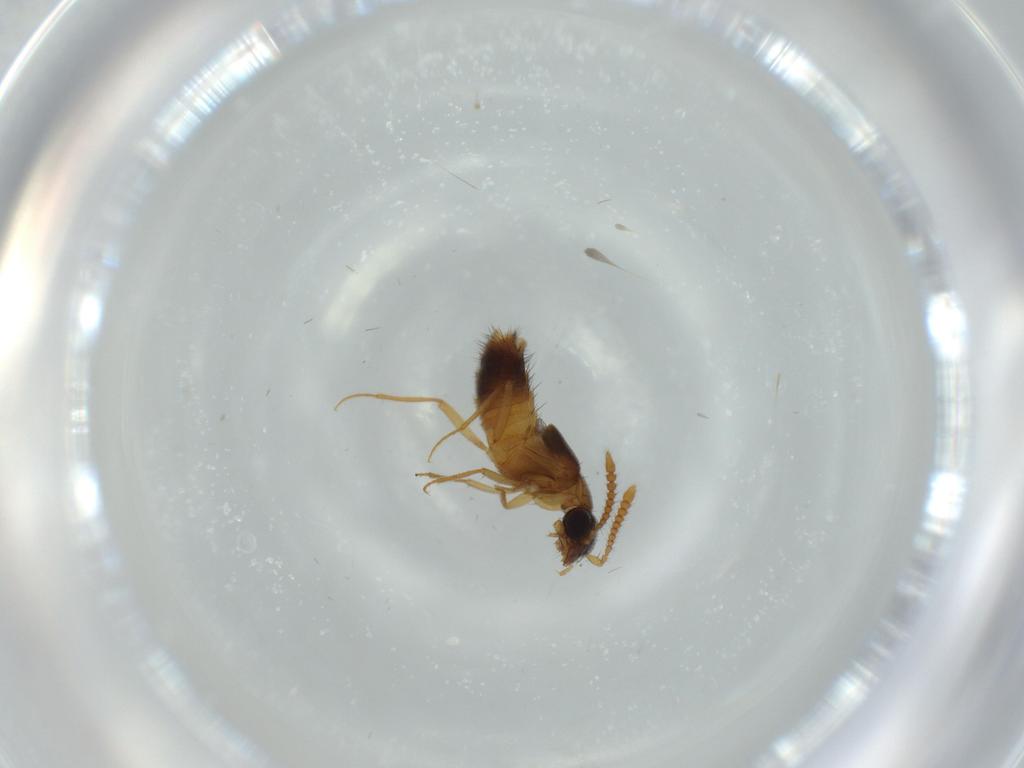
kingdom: Animalia
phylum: Arthropoda
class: Insecta
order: Coleoptera
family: Staphylinidae
